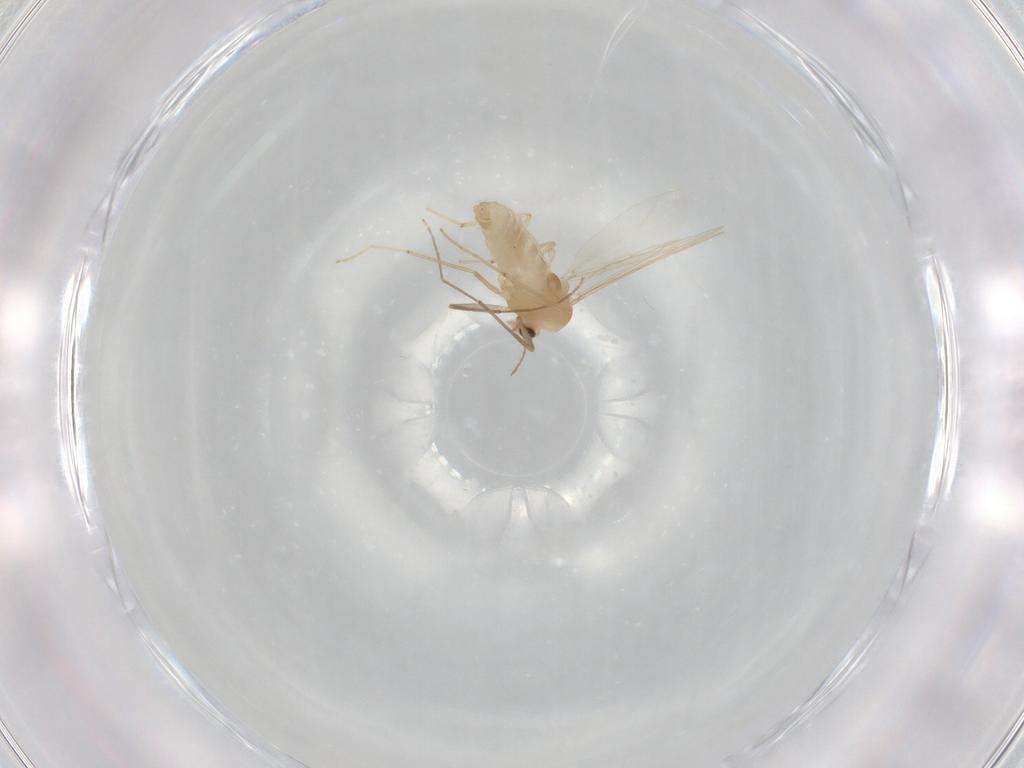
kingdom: Animalia
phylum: Arthropoda
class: Insecta
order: Diptera
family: Chironomidae
